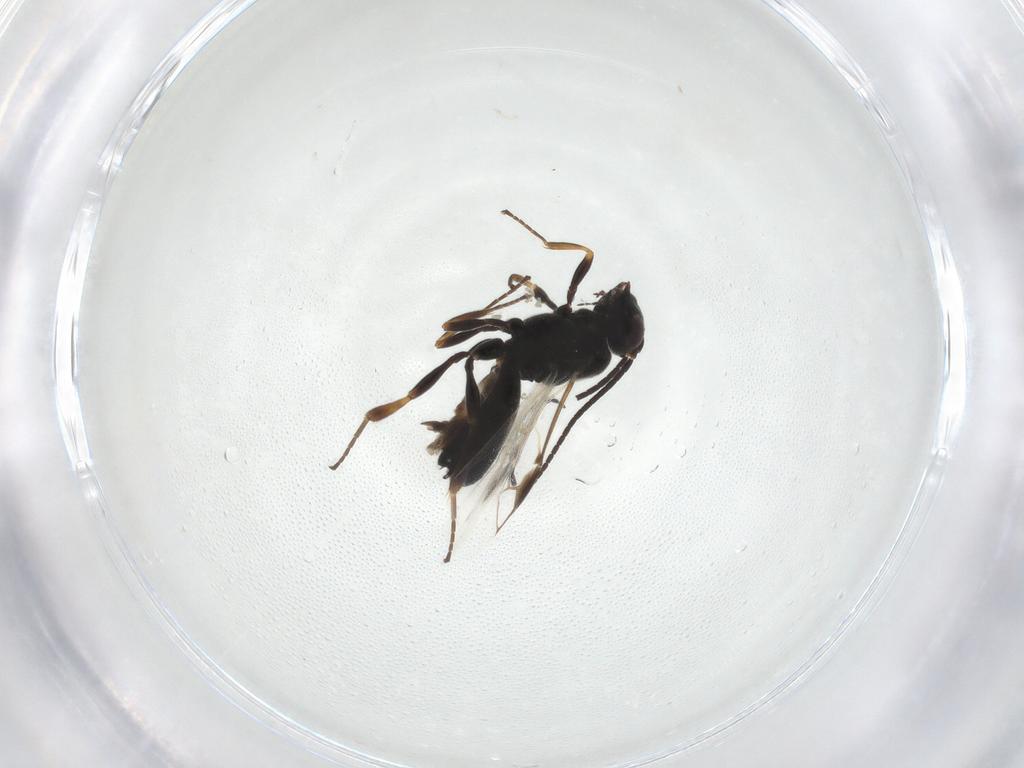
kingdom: Animalia
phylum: Arthropoda
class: Insecta
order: Hymenoptera
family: Braconidae
